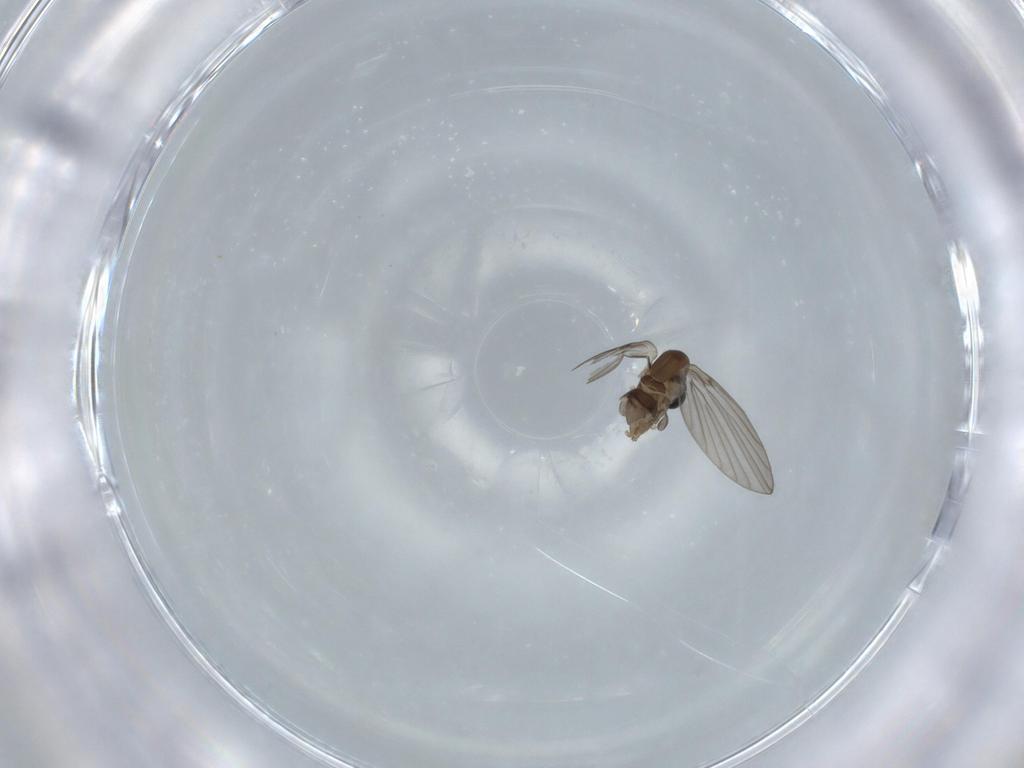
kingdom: Animalia
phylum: Arthropoda
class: Insecta
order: Diptera
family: Psychodidae
